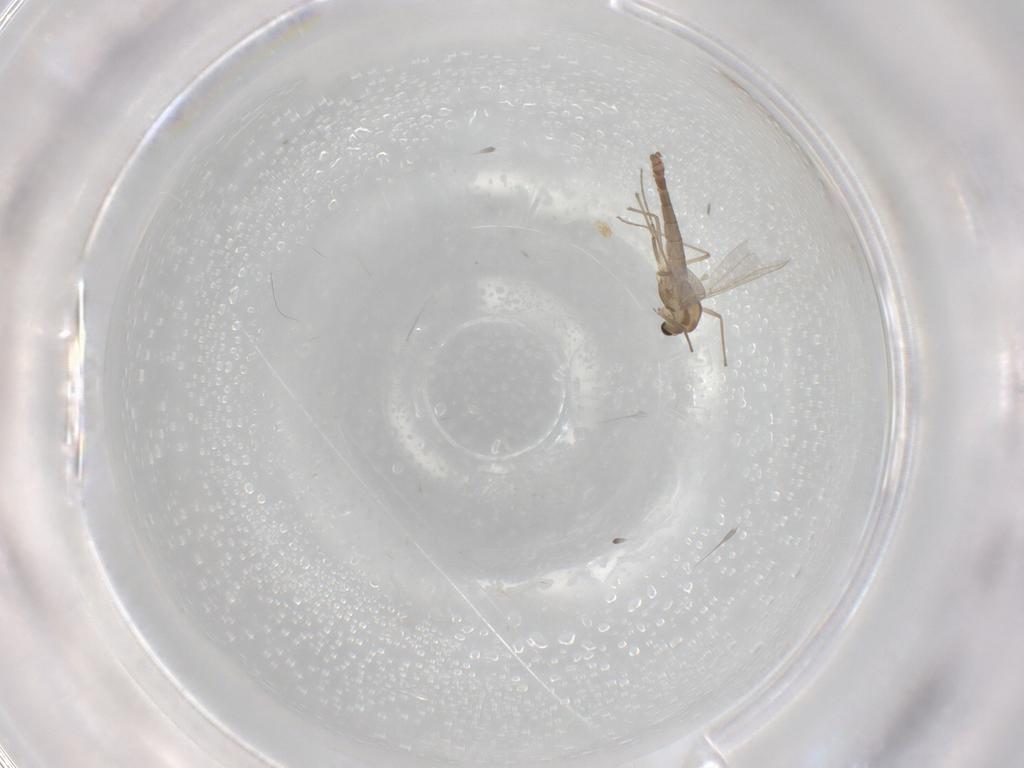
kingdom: Animalia
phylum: Arthropoda
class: Insecta
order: Diptera
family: Chironomidae
